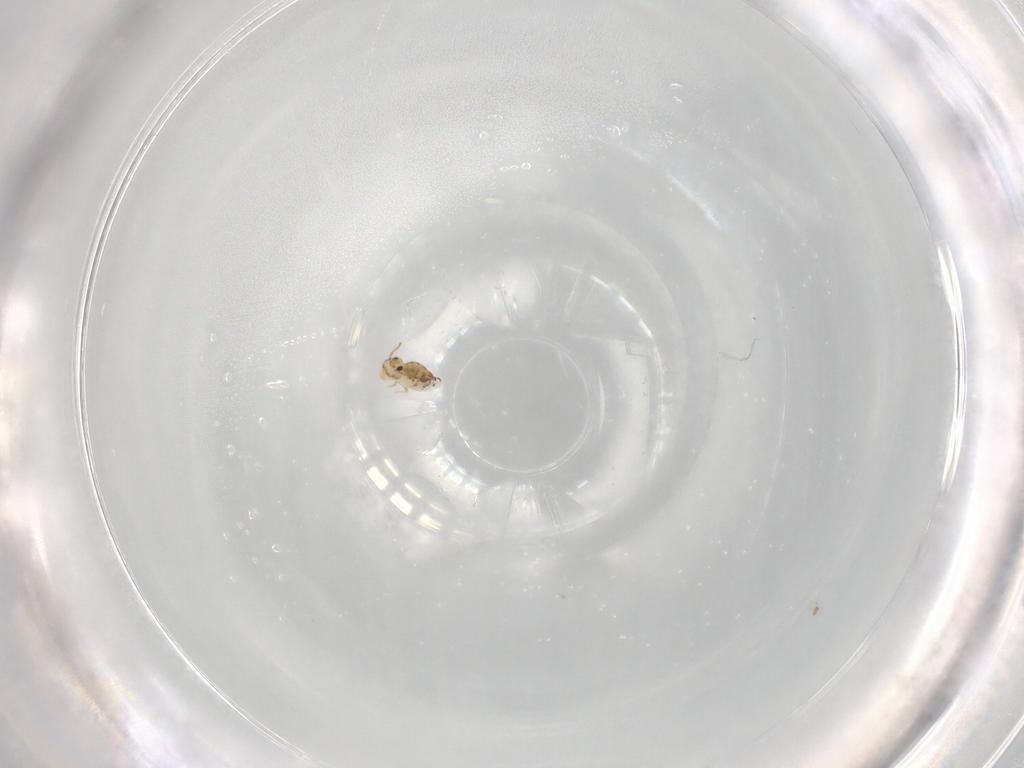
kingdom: Animalia
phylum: Arthropoda
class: Collembola
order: Symphypleona
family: Bourletiellidae
